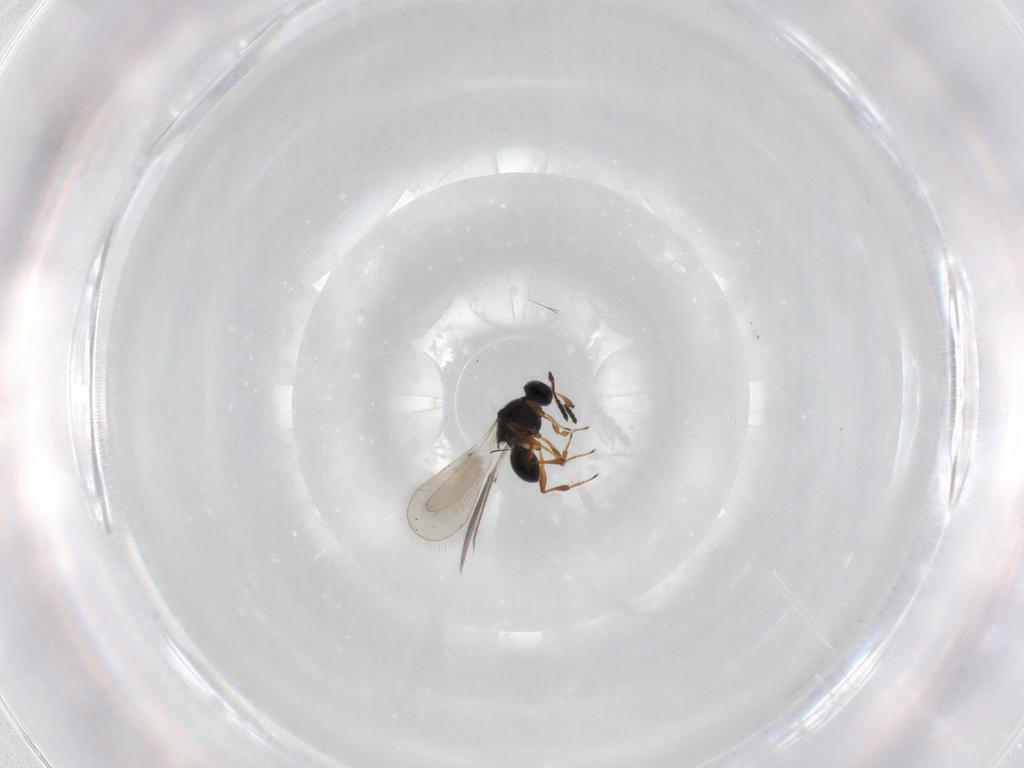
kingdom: Animalia
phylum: Arthropoda
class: Insecta
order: Hymenoptera
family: Platygastridae
